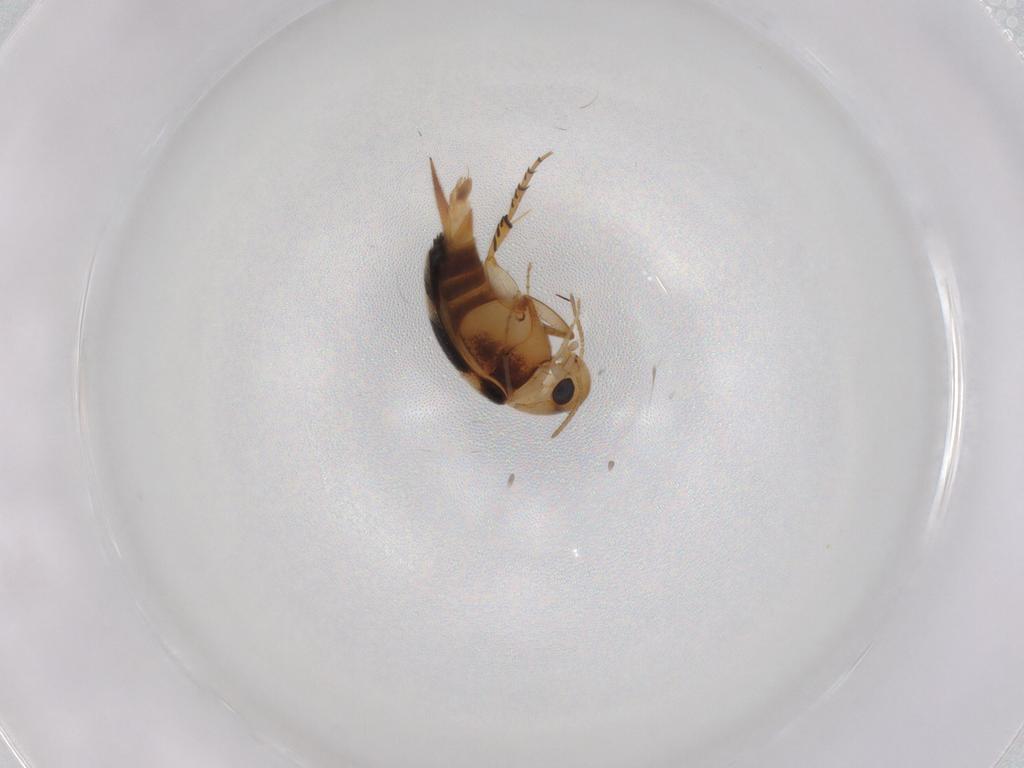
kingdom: Animalia
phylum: Arthropoda
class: Insecta
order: Coleoptera
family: Mordellidae
